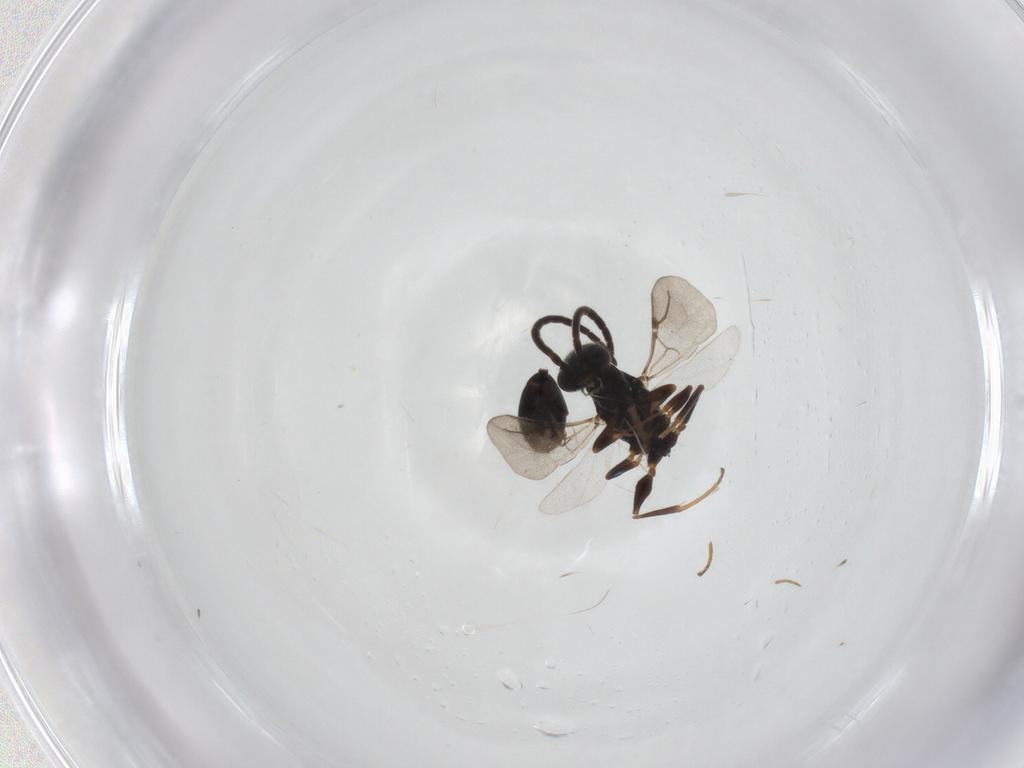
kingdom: Animalia
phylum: Arthropoda
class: Insecta
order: Hymenoptera
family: Bethylidae
